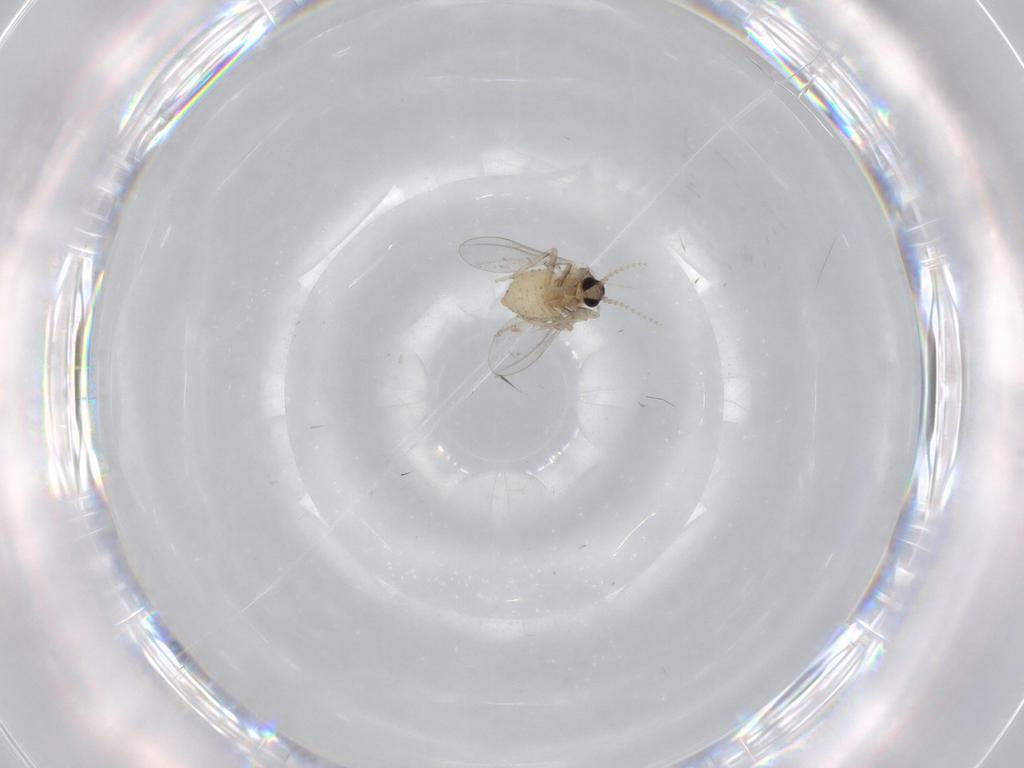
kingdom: Animalia
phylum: Arthropoda
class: Insecta
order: Diptera
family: Cecidomyiidae
